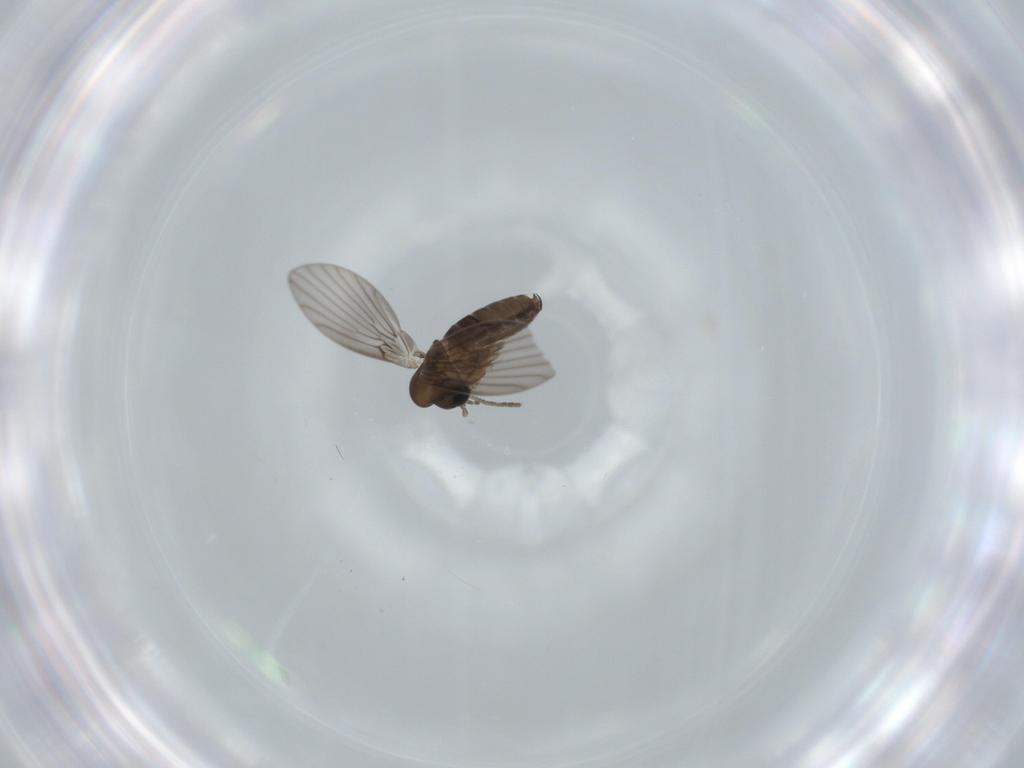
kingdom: Animalia
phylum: Arthropoda
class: Insecta
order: Diptera
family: Psychodidae
